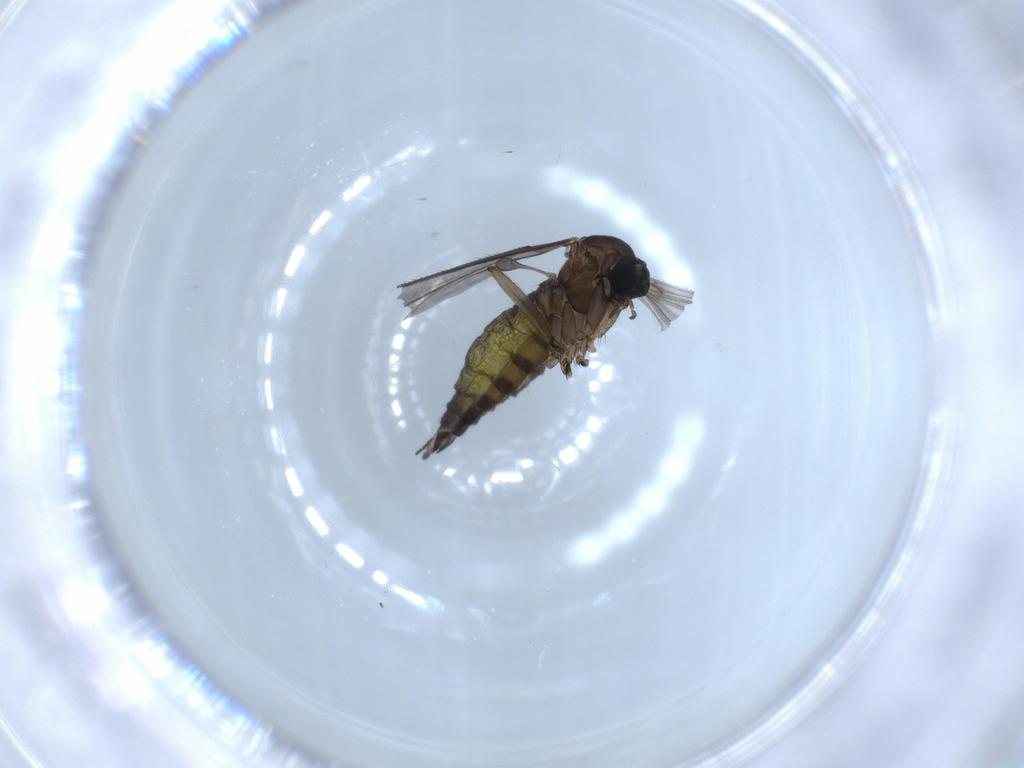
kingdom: Animalia
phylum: Arthropoda
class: Insecta
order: Diptera
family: Sciaridae
